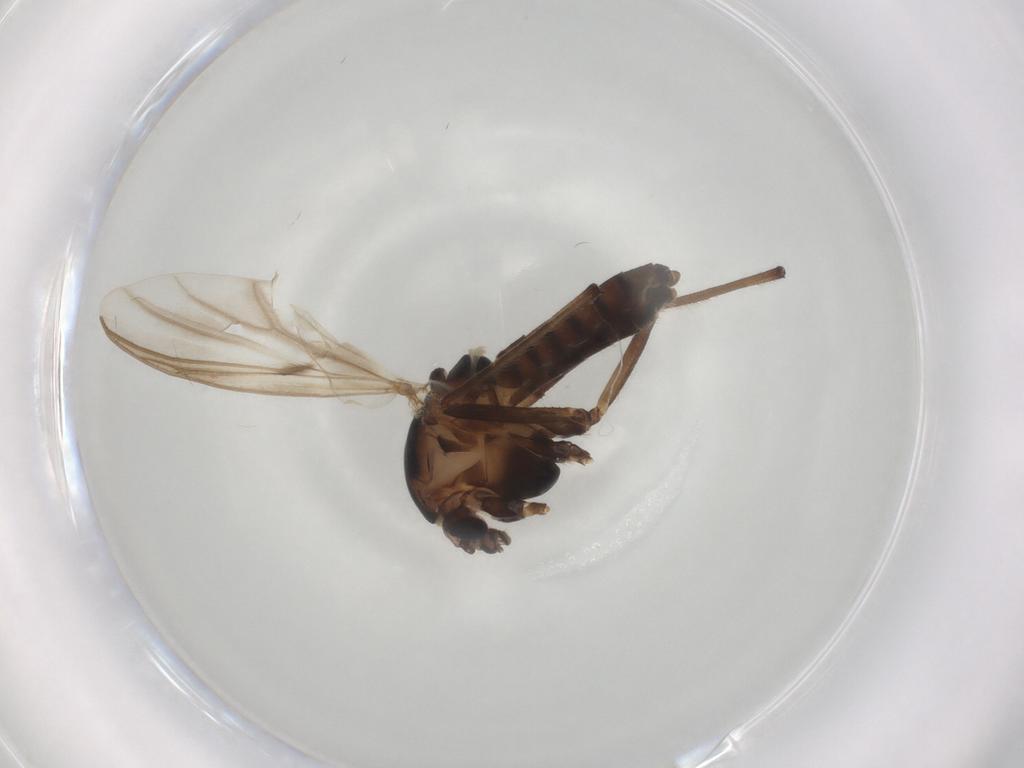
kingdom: Animalia
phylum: Arthropoda
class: Insecta
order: Diptera
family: Chironomidae
